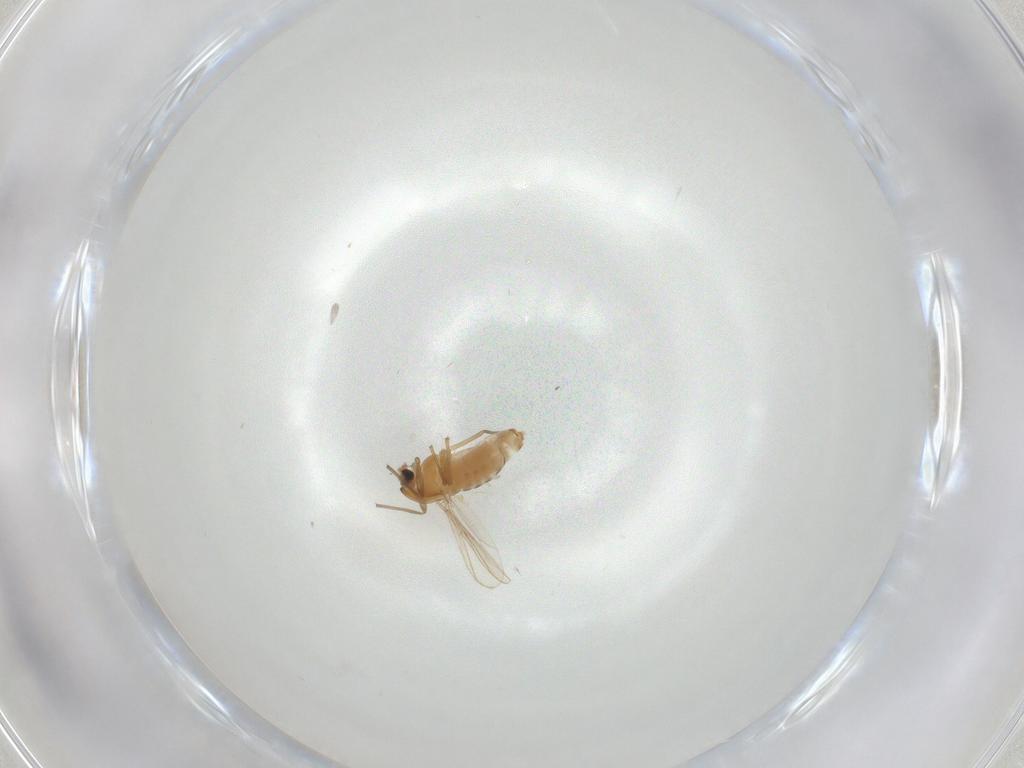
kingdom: Animalia
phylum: Arthropoda
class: Insecta
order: Diptera
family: Chironomidae
